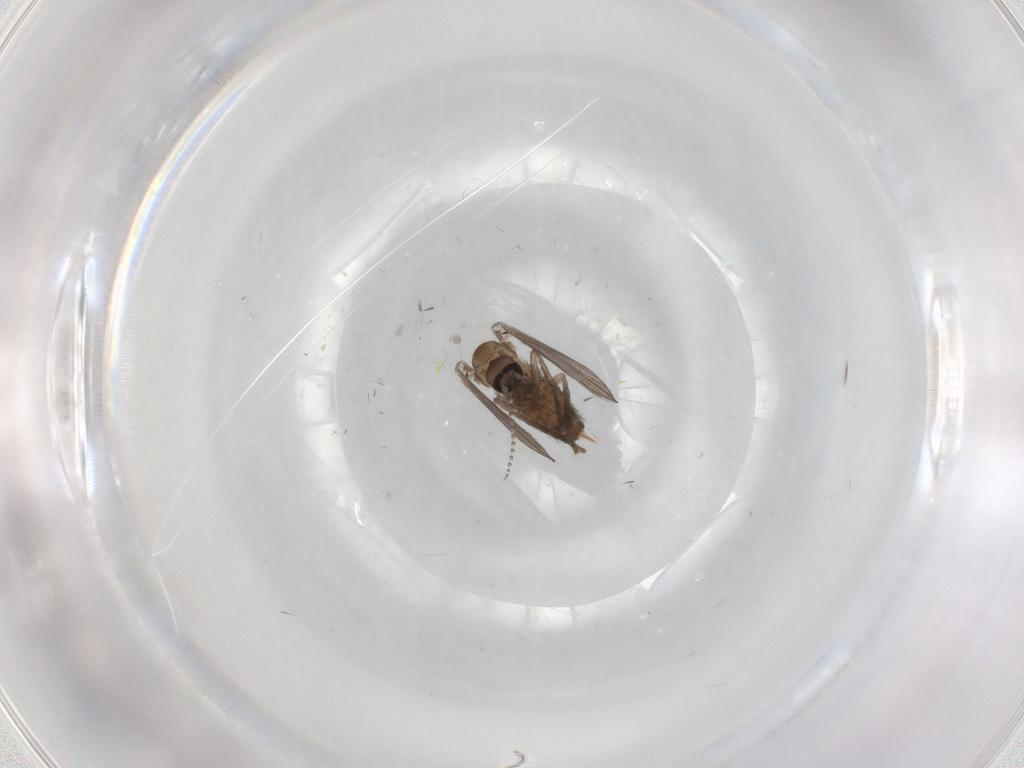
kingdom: Animalia
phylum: Arthropoda
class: Insecta
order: Diptera
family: Psychodidae
